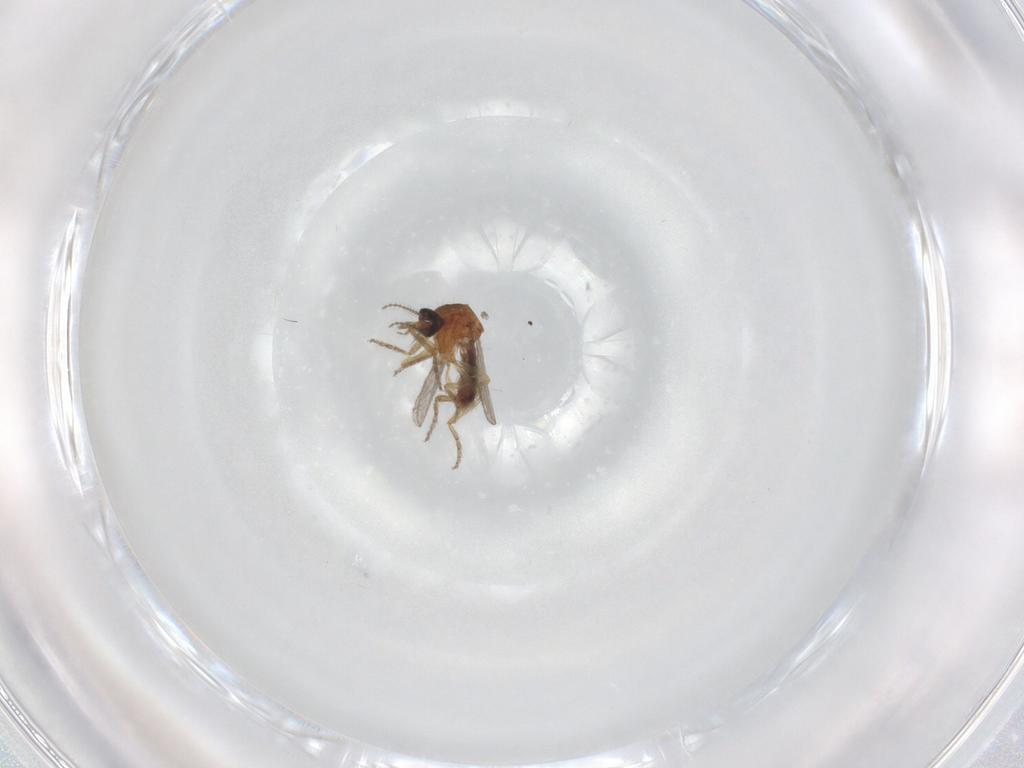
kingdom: Animalia
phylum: Arthropoda
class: Insecta
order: Diptera
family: Ceratopogonidae
